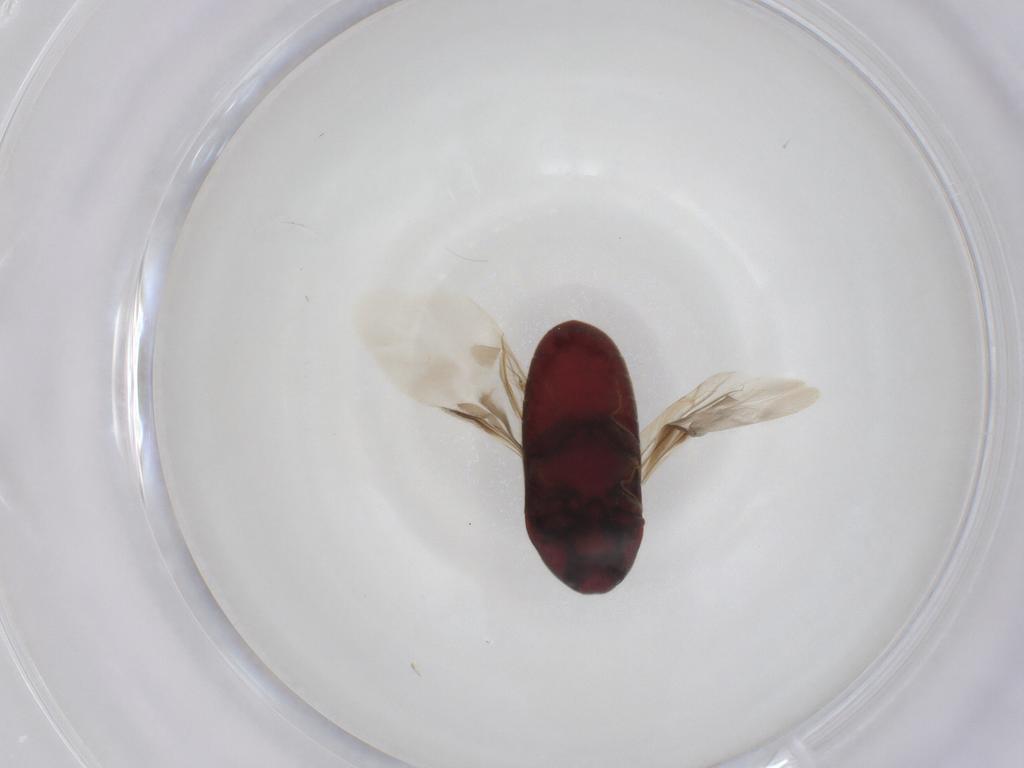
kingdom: Animalia
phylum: Arthropoda
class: Insecta
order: Coleoptera
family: Throscidae
